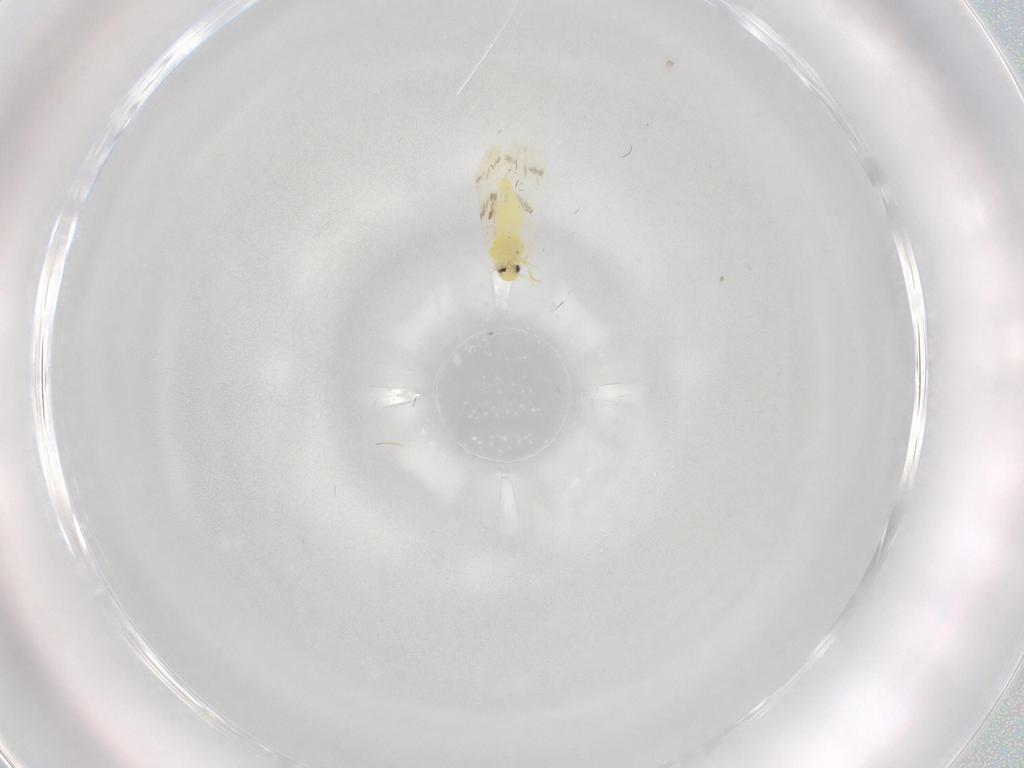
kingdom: Animalia
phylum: Arthropoda
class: Insecta
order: Hemiptera
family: Aleyrodidae
